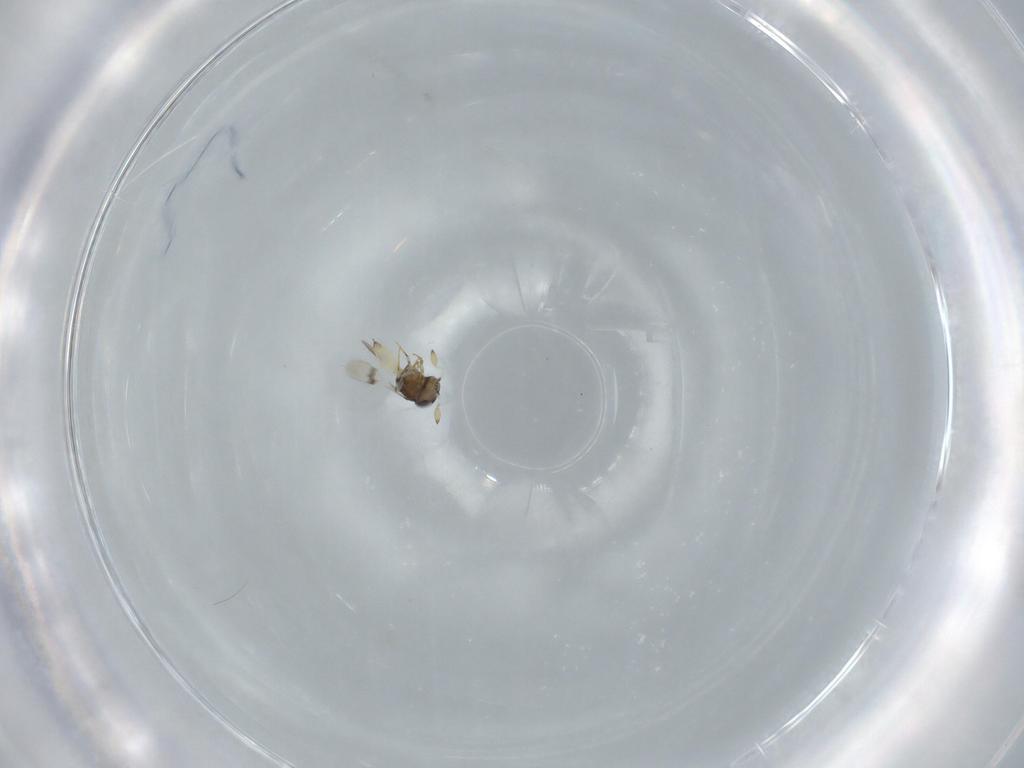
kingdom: Animalia
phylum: Arthropoda
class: Insecta
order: Hymenoptera
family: Scelionidae
